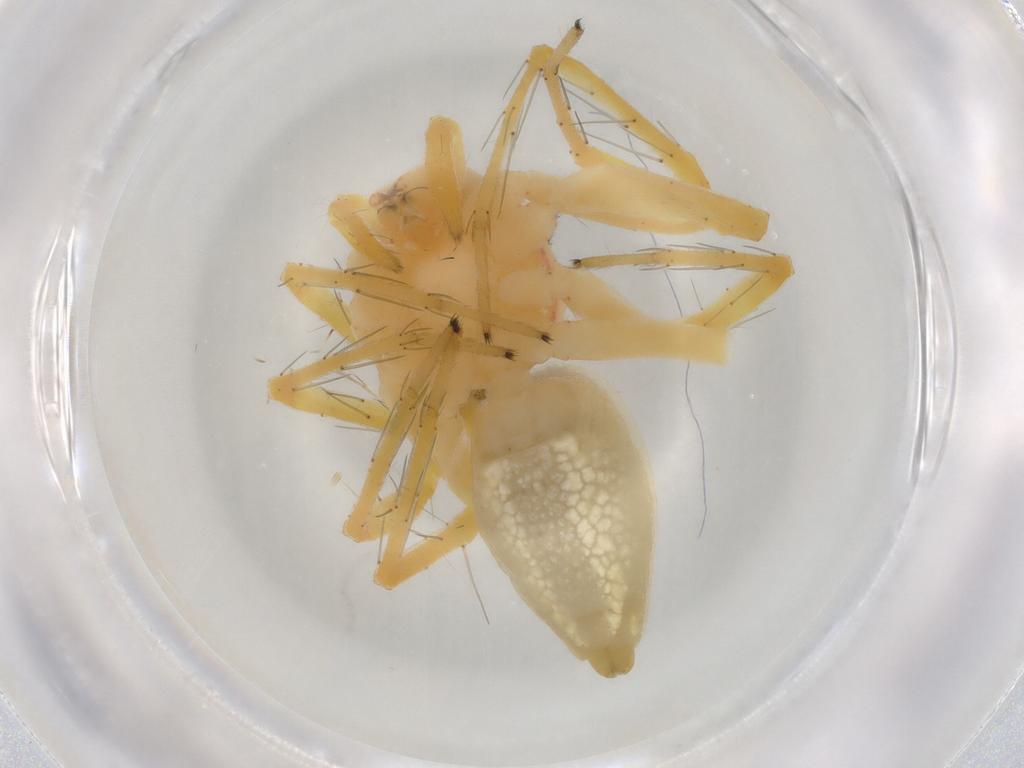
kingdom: Animalia
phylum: Arthropoda
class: Arachnida
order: Araneae
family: Oxyopidae
